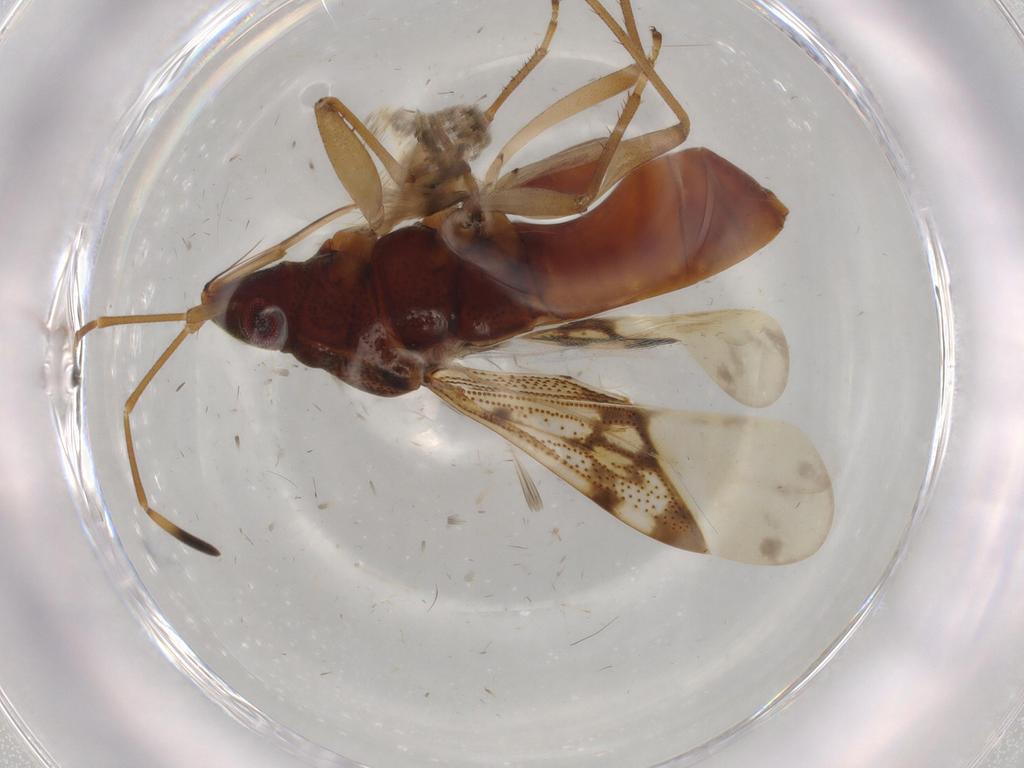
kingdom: Animalia
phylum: Arthropoda
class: Insecta
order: Hemiptera
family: Rhyparochromidae
